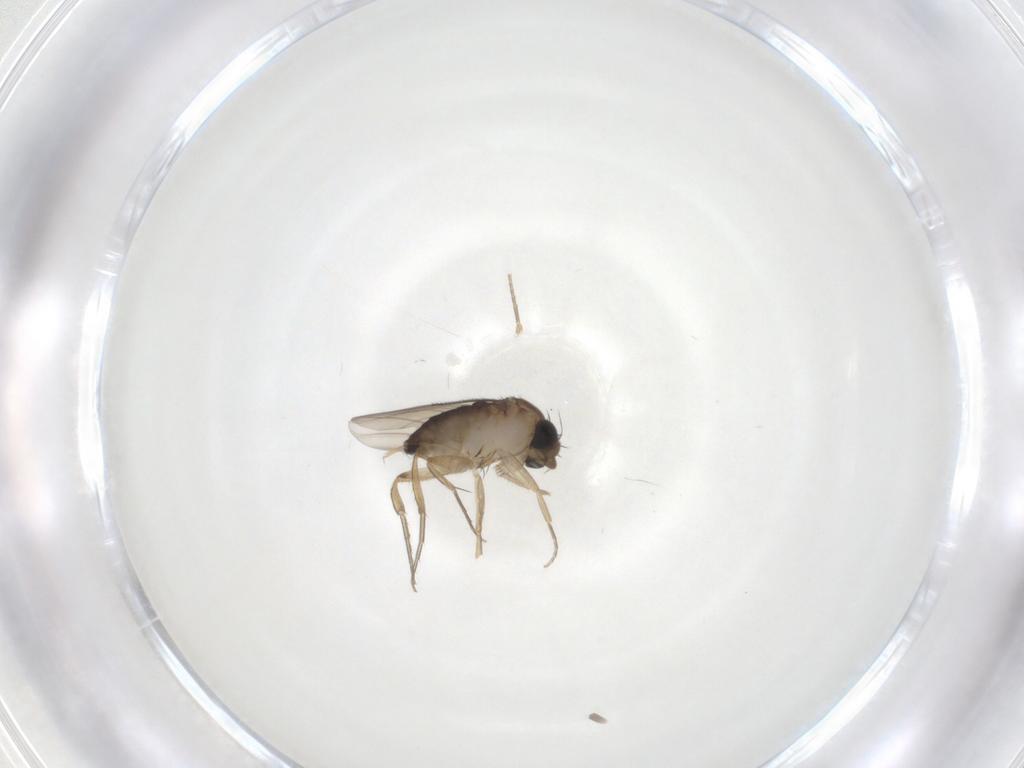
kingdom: Animalia
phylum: Arthropoda
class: Insecta
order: Diptera
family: Phoridae
